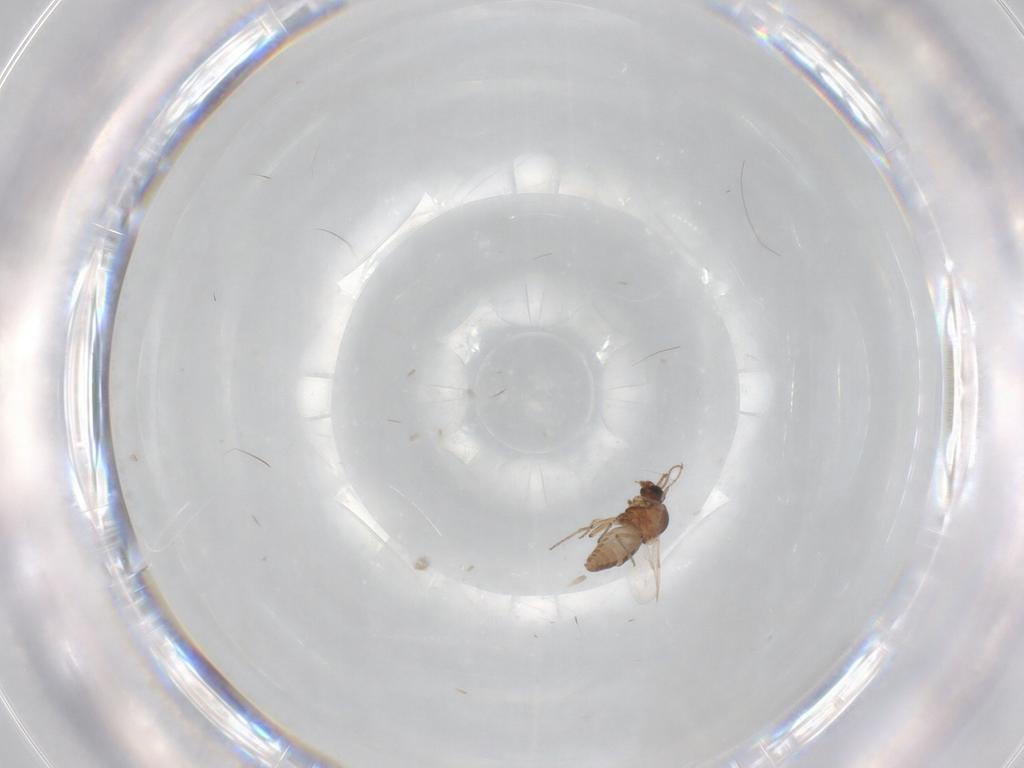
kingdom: Animalia
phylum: Arthropoda
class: Insecta
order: Diptera
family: Ceratopogonidae
